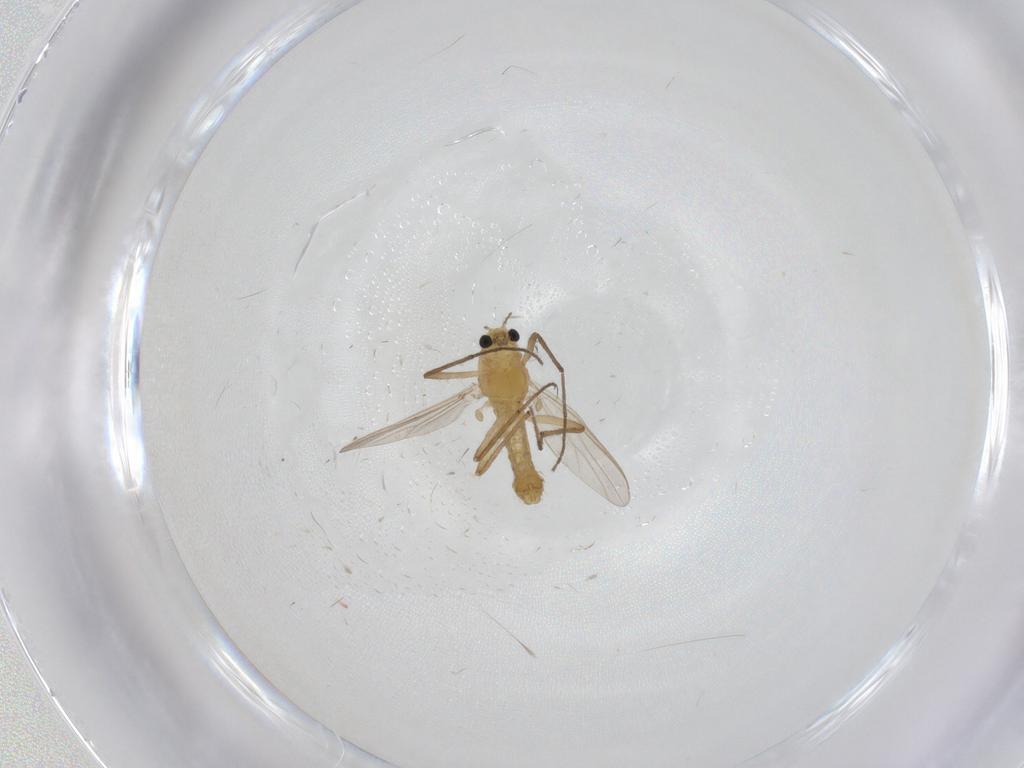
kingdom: Animalia
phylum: Arthropoda
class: Insecta
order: Diptera
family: Chironomidae
